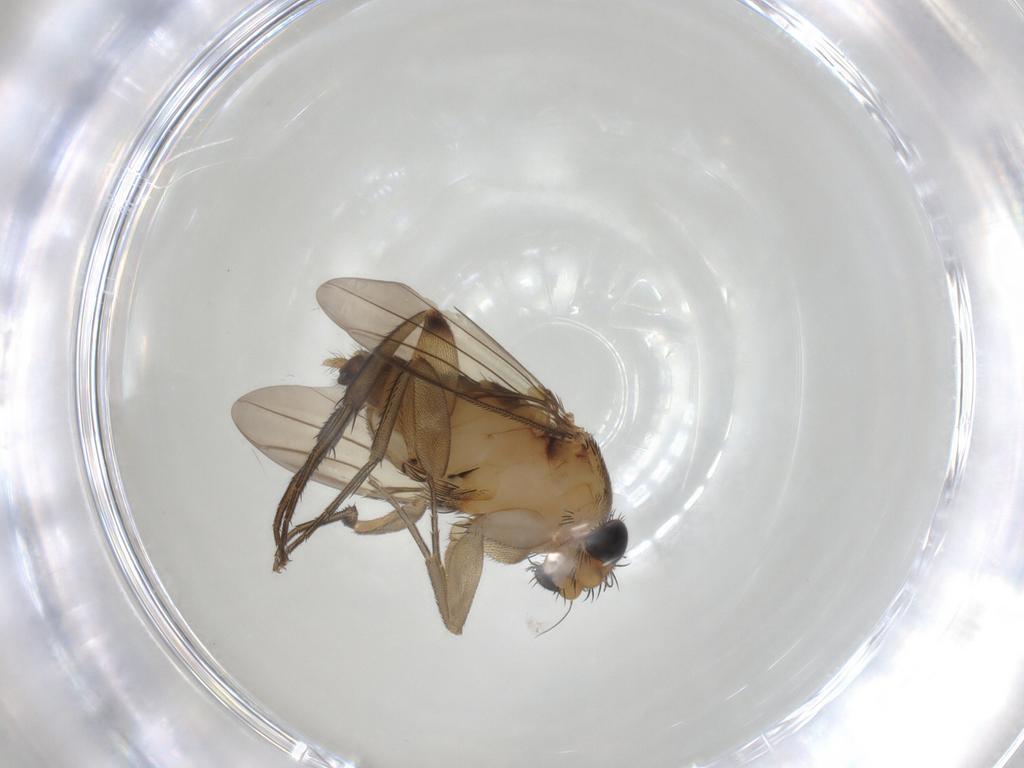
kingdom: Animalia
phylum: Arthropoda
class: Insecta
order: Diptera
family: Phoridae
